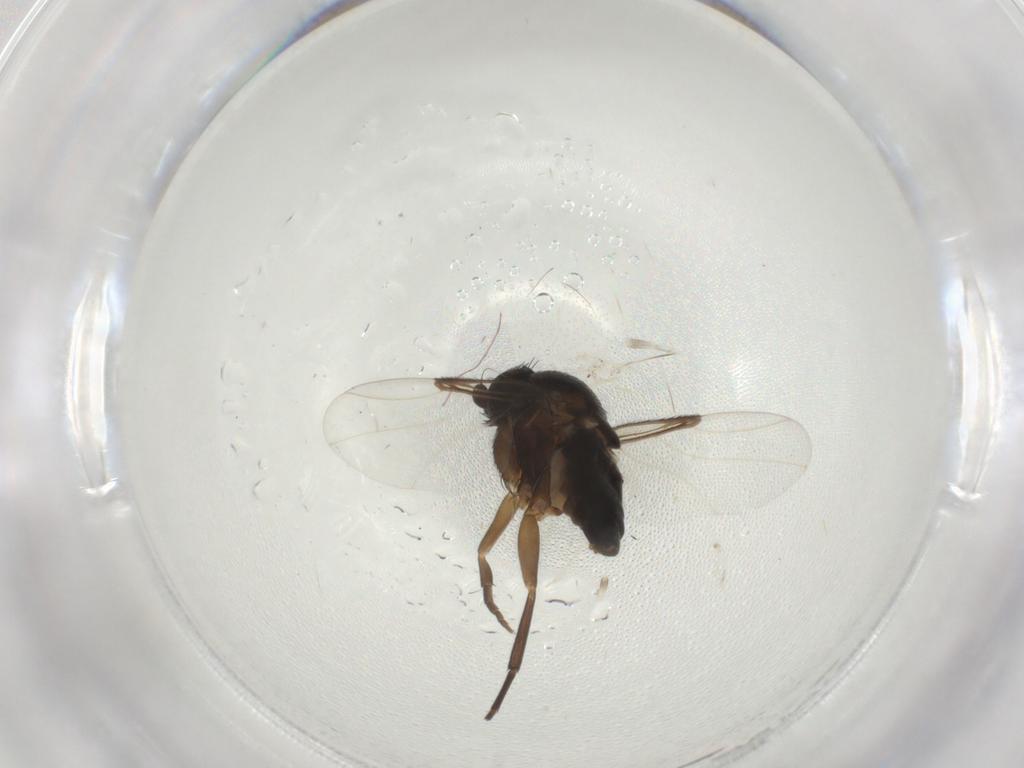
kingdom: Animalia
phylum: Arthropoda
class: Insecta
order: Diptera
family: Phoridae
